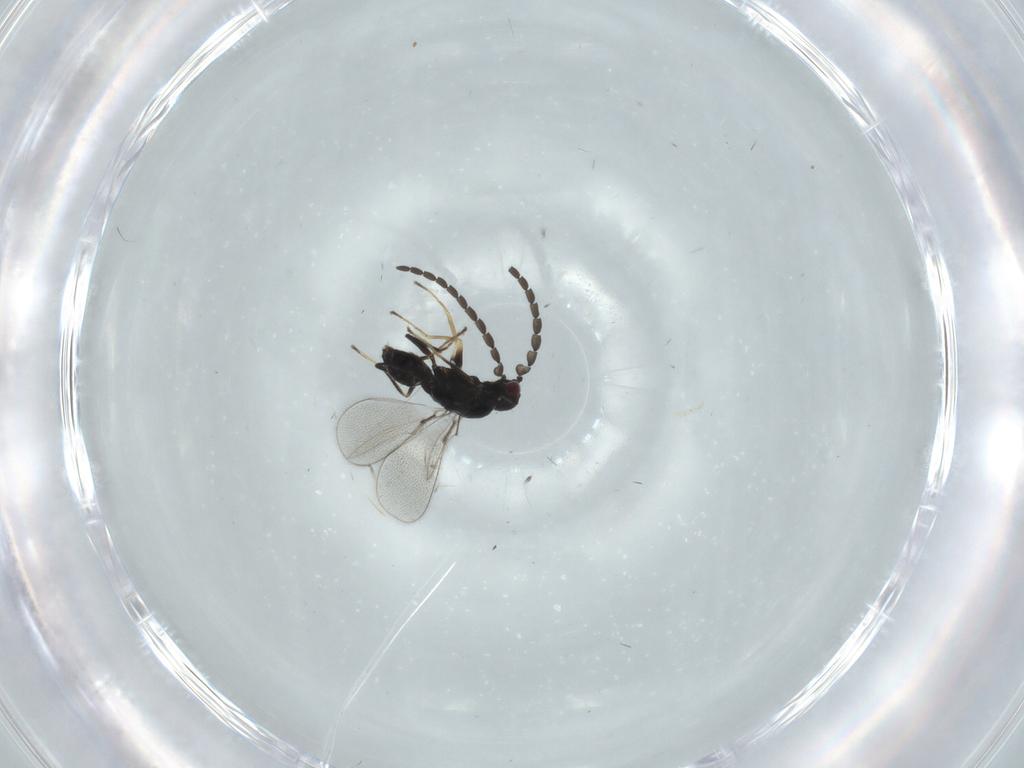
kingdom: Animalia
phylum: Arthropoda
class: Insecta
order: Diptera
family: Cecidomyiidae
